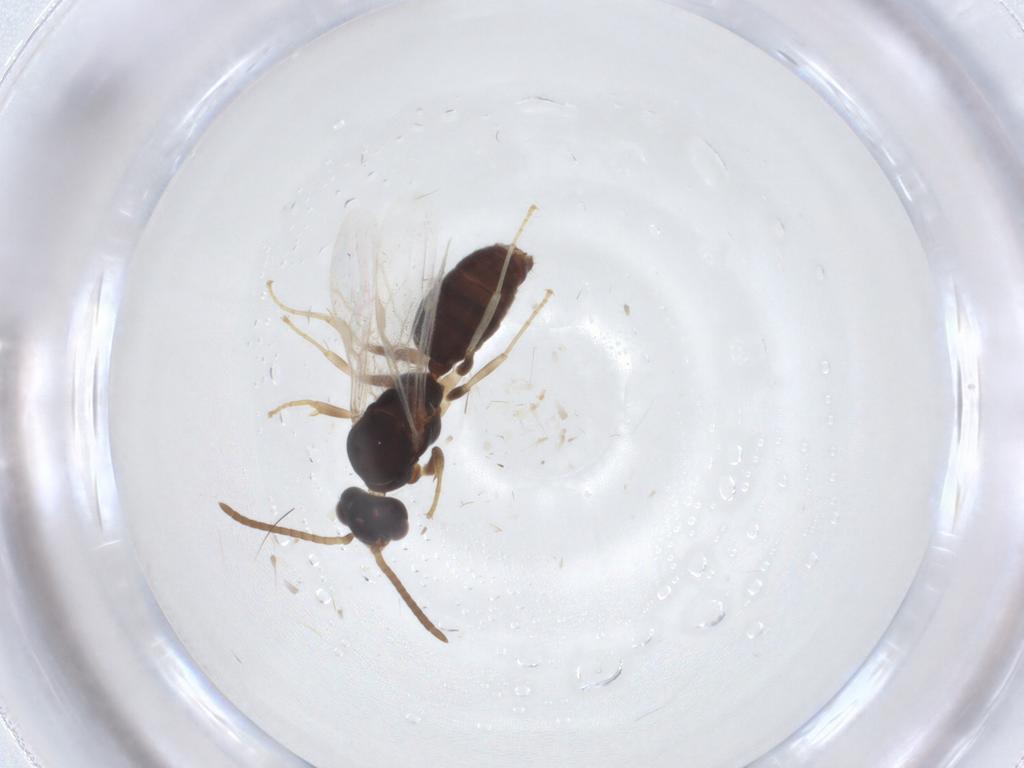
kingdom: Animalia
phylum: Arthropoda
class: Insecta
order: Hymenoptera
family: Formicidae
